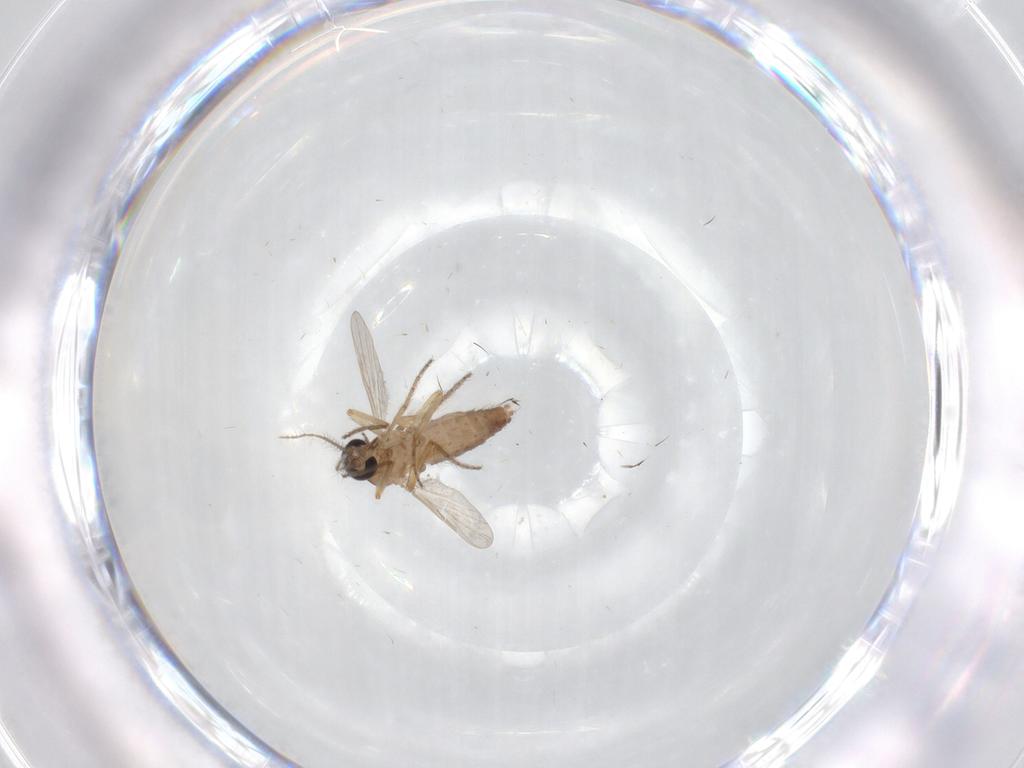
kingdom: Animalia
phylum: Arthropoda
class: Insecta
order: Diptera
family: Ceratopogonidae
